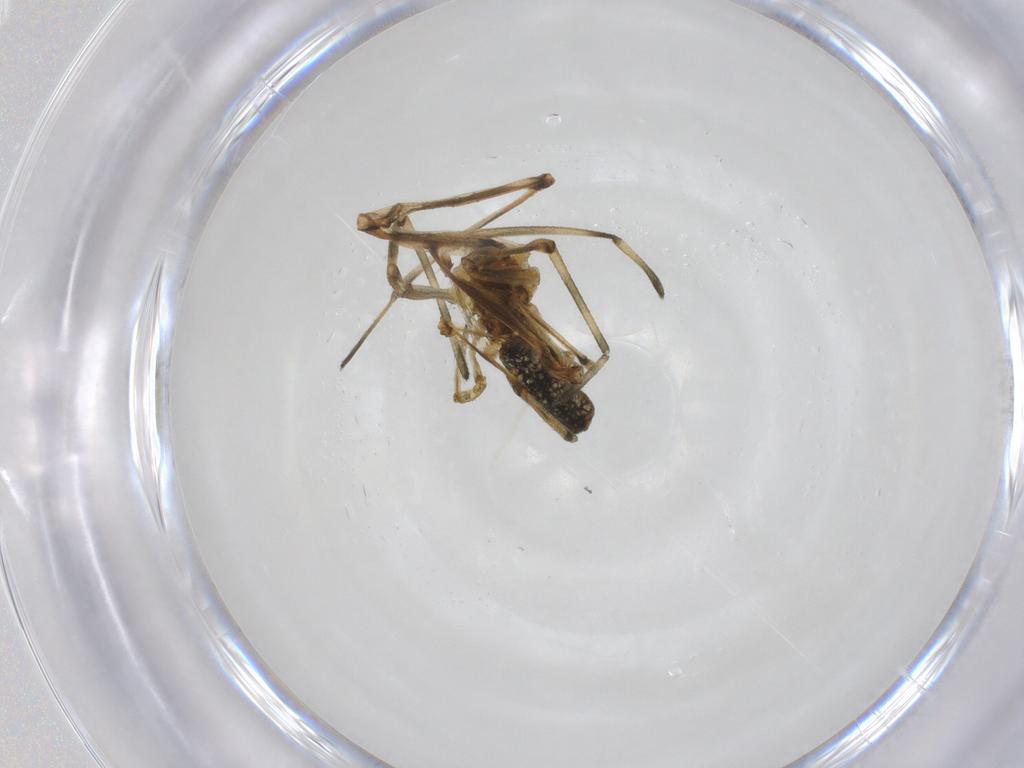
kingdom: Animalia
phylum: Arthropoda
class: Arachnida
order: Araneae
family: Tetragnathidae
